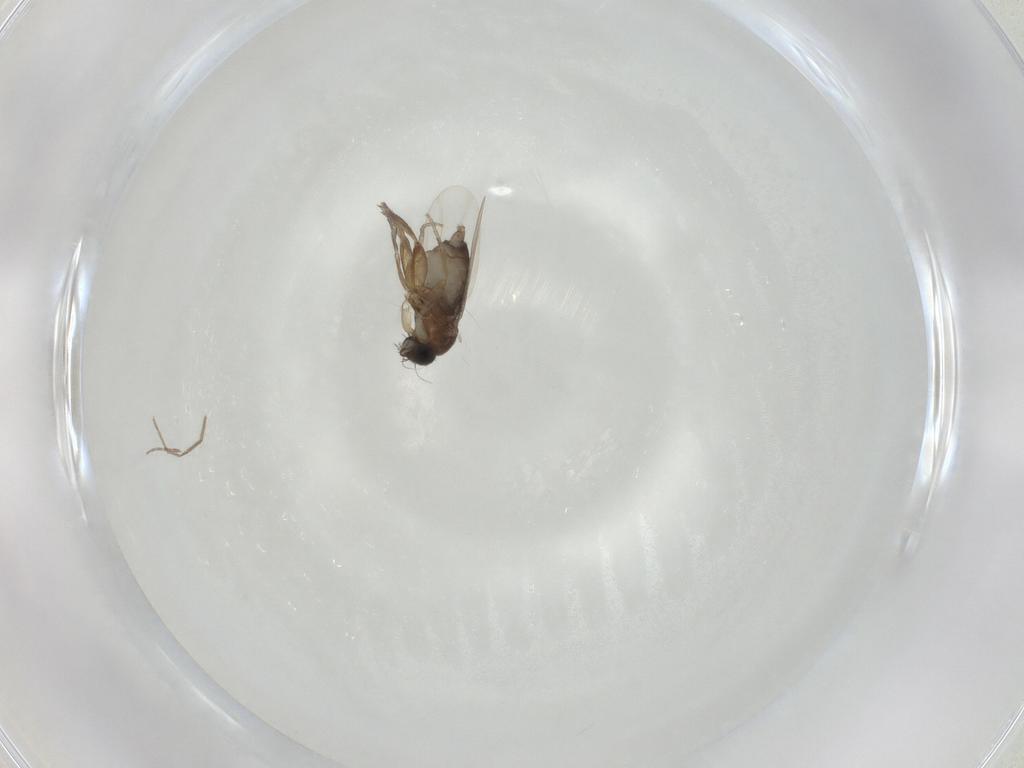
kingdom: Animalia
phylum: Arthropoda
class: Insecta
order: Diptera
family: Phoridae
